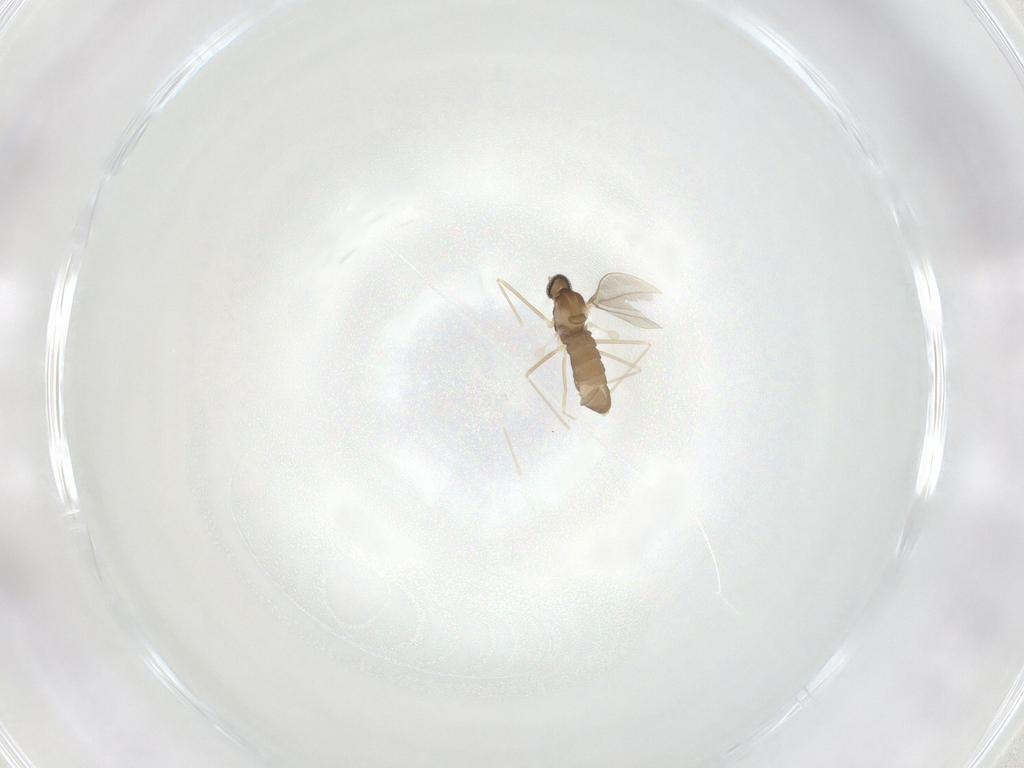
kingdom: Animalia
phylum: Arthropoda
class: Insecta
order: Diptera
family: Cecidomyiidae
